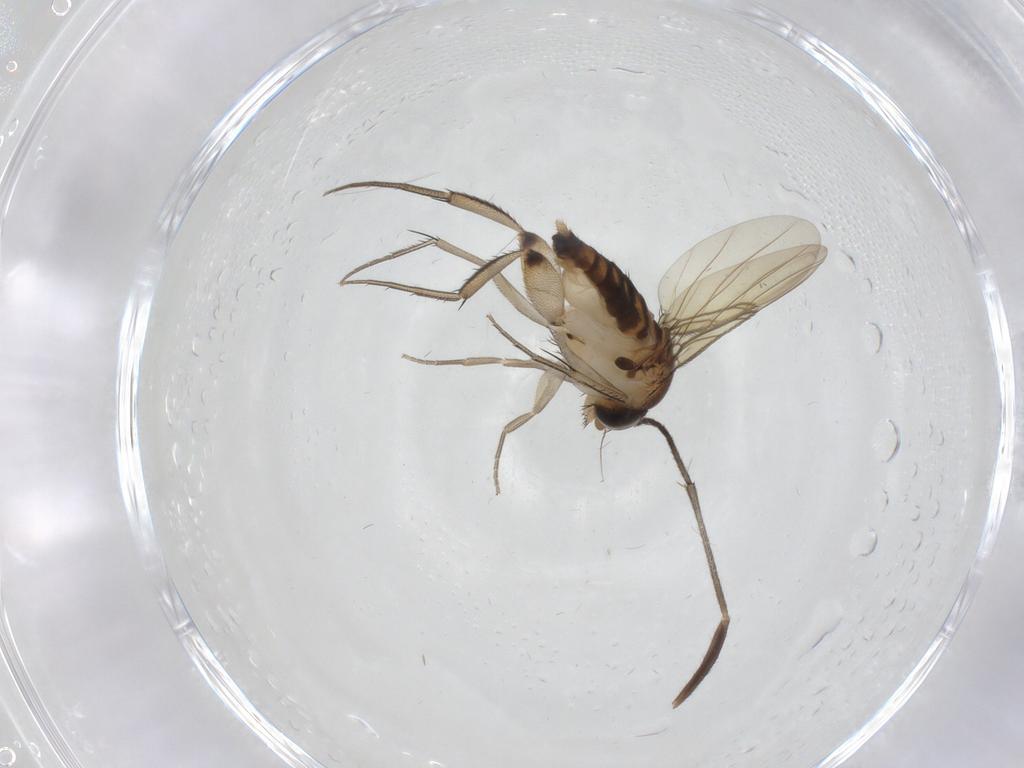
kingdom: Animalia
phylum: Arthropoda
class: Insecta
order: Diptera
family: Phoridae
